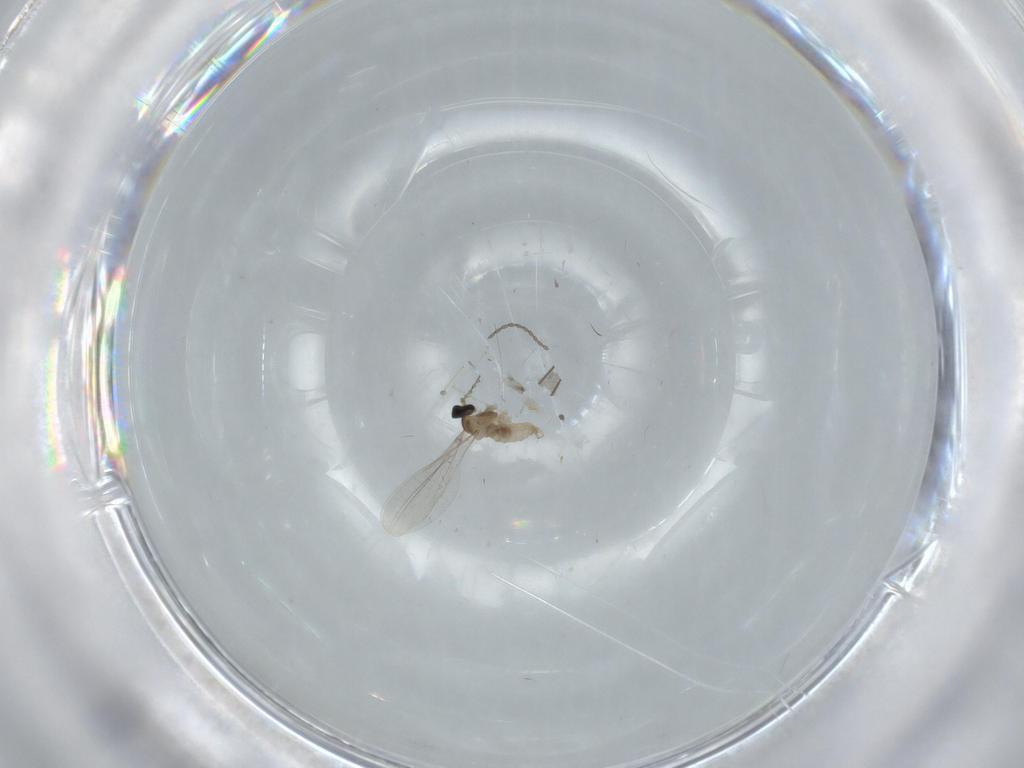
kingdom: Animalia
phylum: Arthropoda
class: Insecta
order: Diptera
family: Cecidomyiidae
